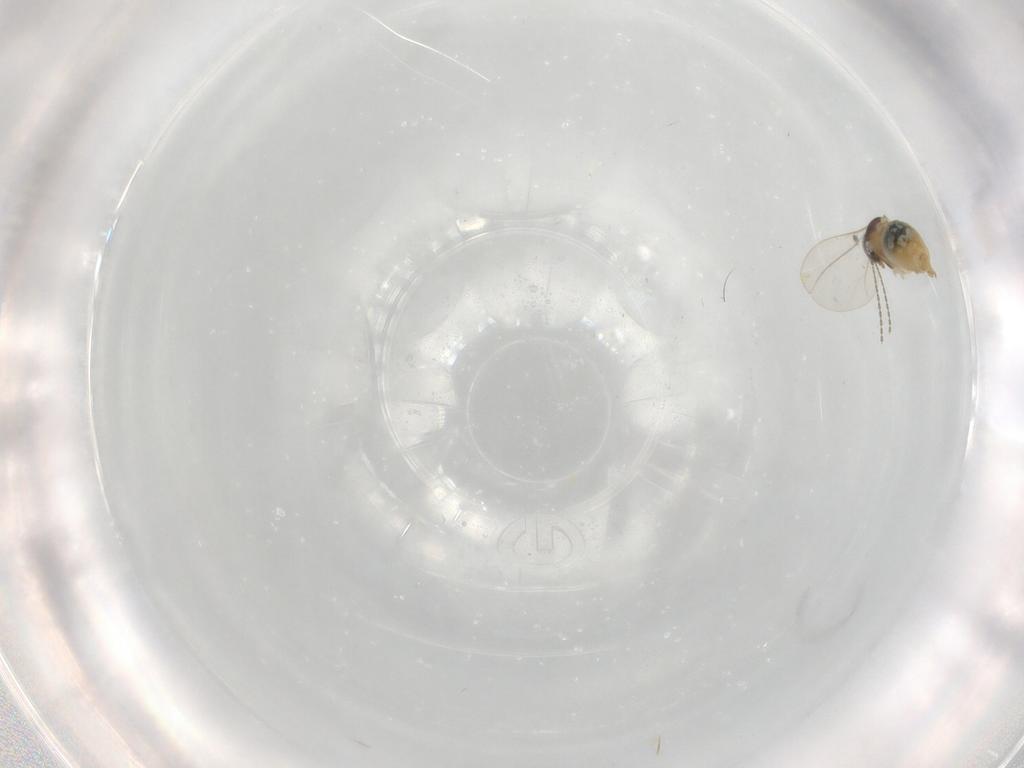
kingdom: Animalia
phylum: Arthropoda
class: Insecta
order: Diptera
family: Cecidomyiidae
